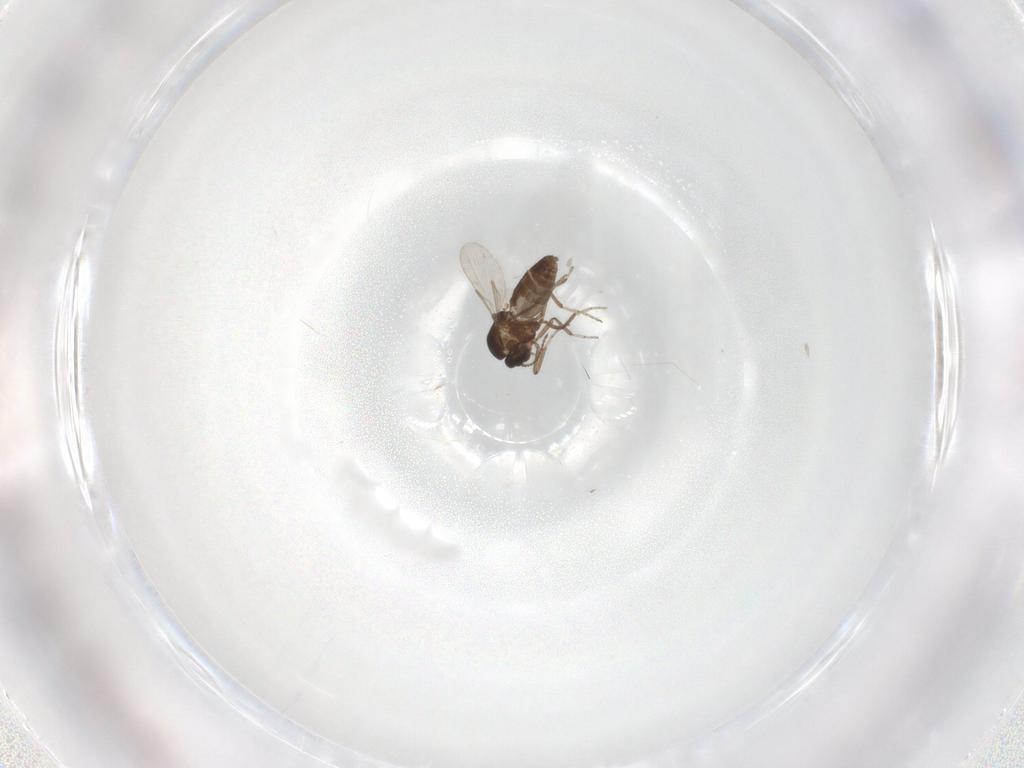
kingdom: Animalia
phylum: Arthropoda
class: Insecta
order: Diptera
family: Ceratopogonidae
